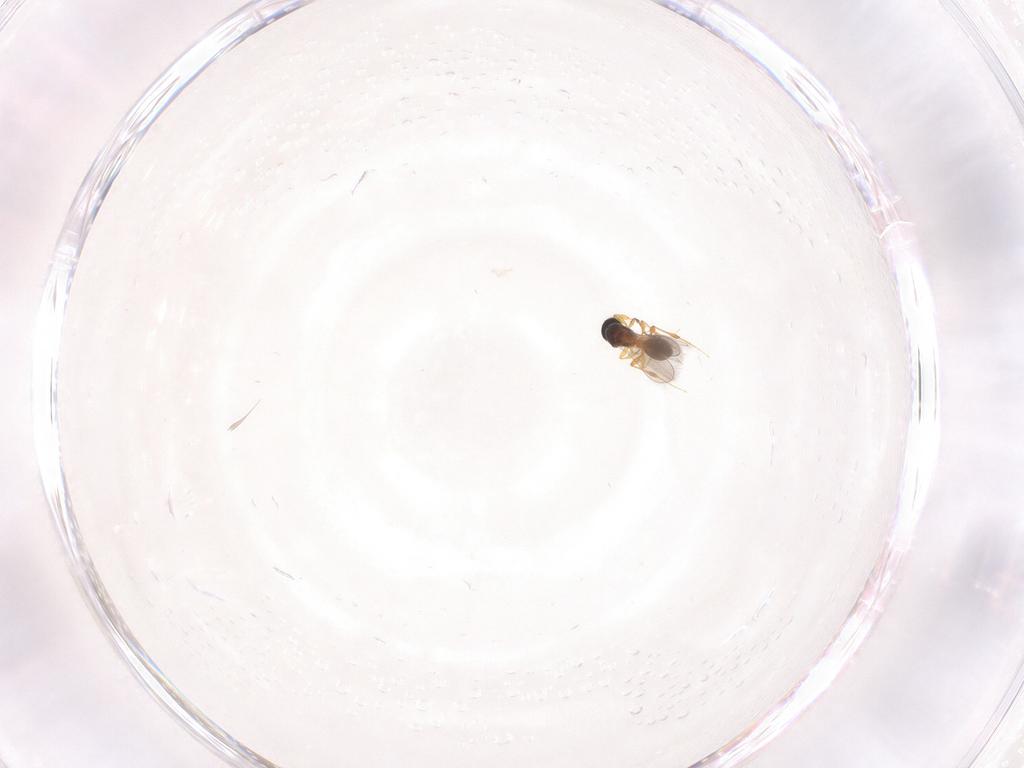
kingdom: Animalia
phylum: Arthropoda
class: Insecta
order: Hymenoptera
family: Platygastridae
